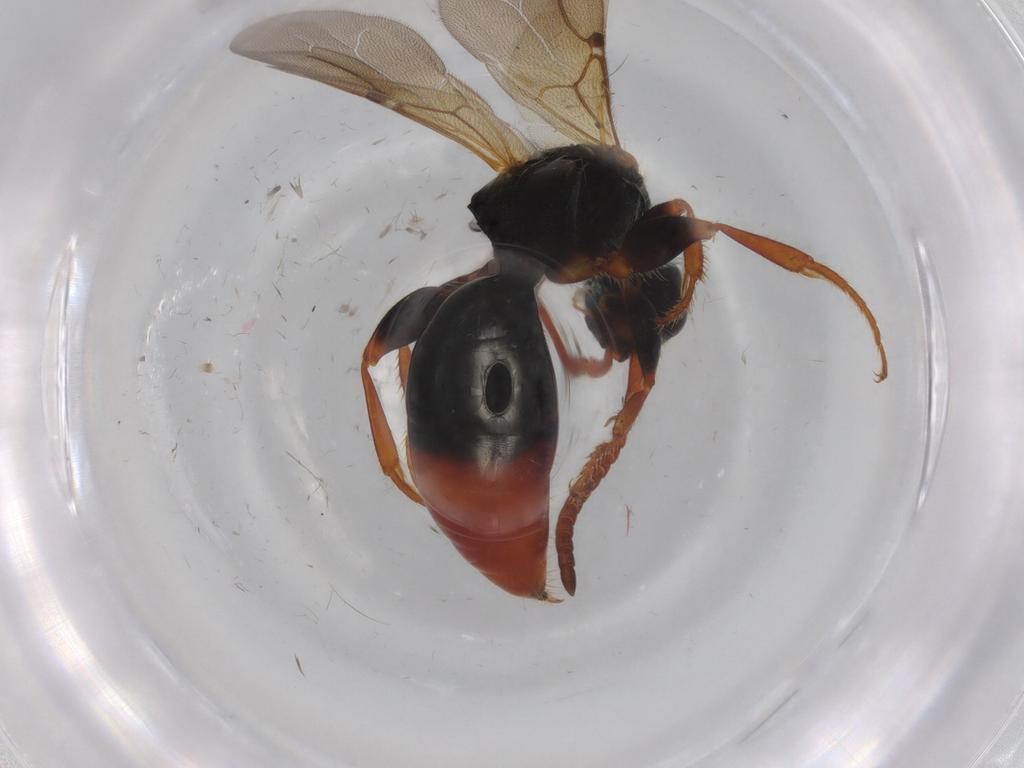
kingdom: Animalia
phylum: Arthropoda
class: Insecta
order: Hymenoptera
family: Bethylidae
